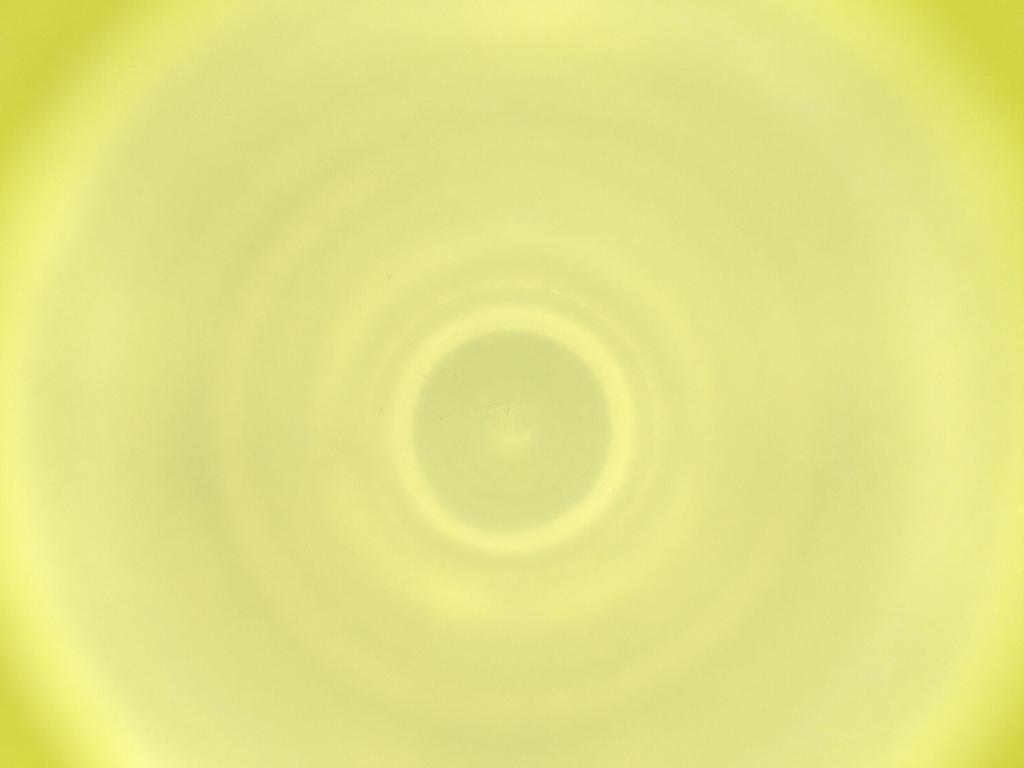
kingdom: Animalia
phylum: Arthropoda
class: Insecta
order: Diptera
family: Cecidomyiidae
